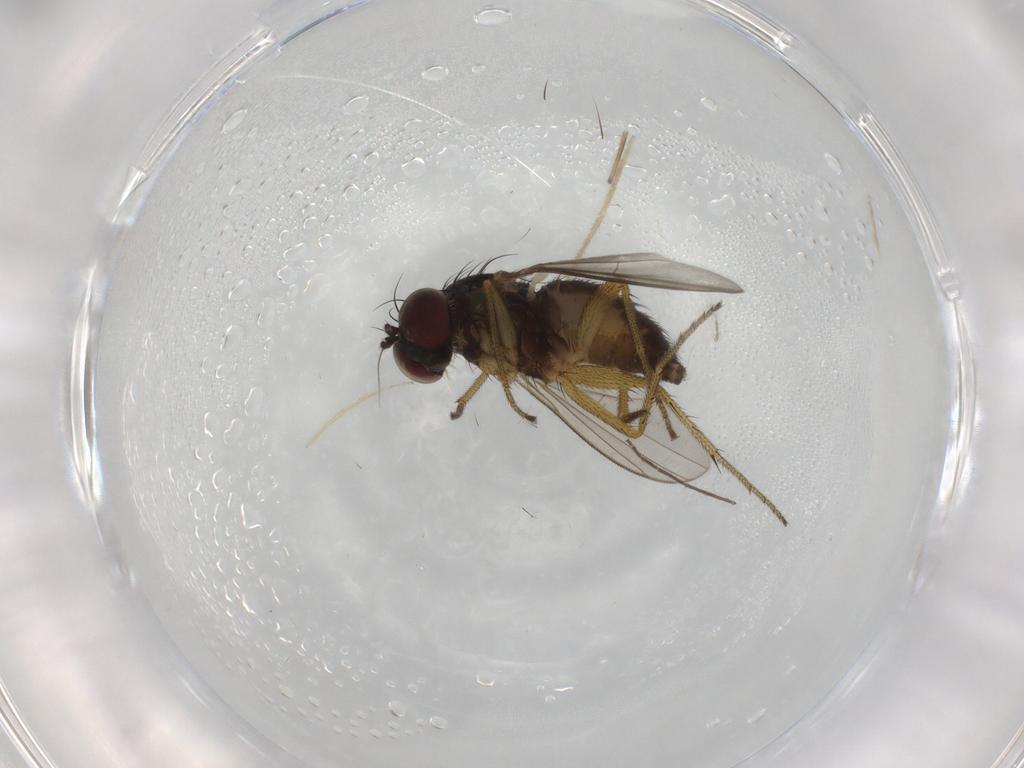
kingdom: Animalia
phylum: Arthropoda
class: Insecta
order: Diptera
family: Dolichopodidae
